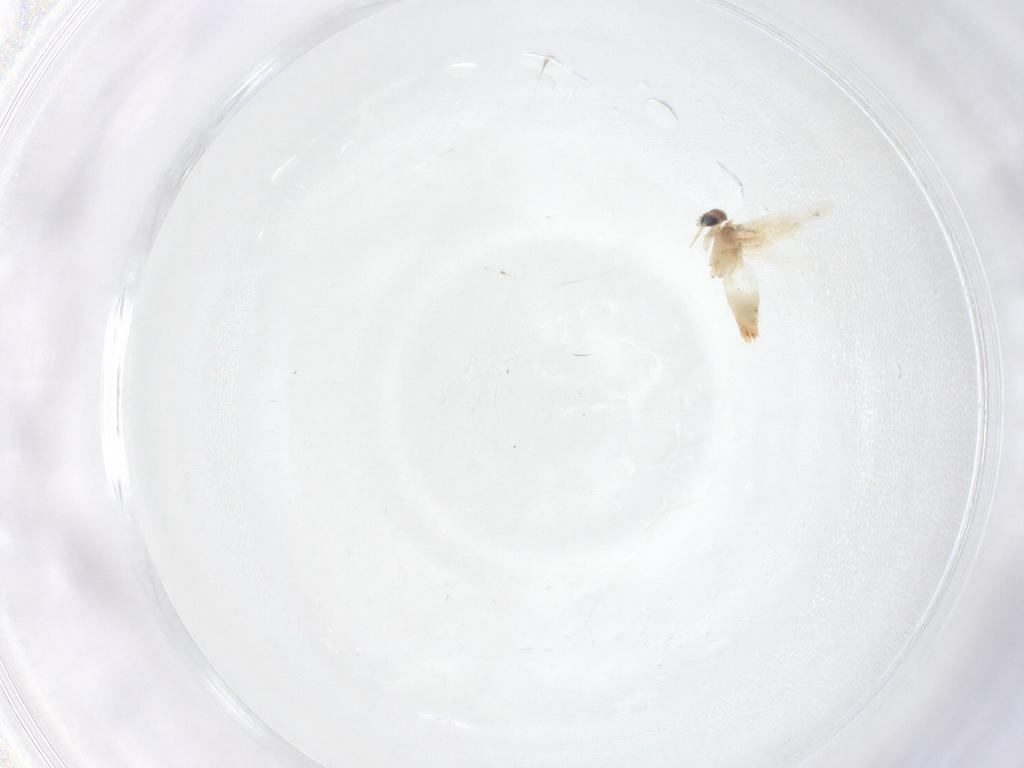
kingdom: Animalia
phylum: Arthropoda
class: Insecta
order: Lepidoptera
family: Crambidae
